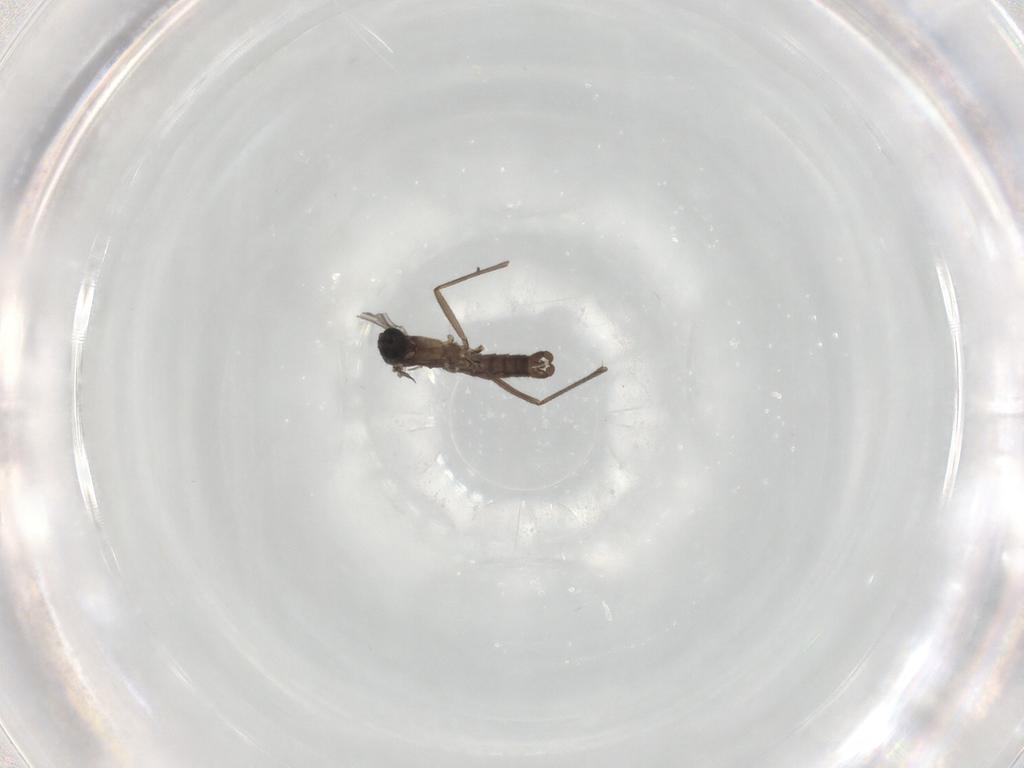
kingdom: Animalia
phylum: Arthropoda
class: Insecta
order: Diptera
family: Sciaridae
